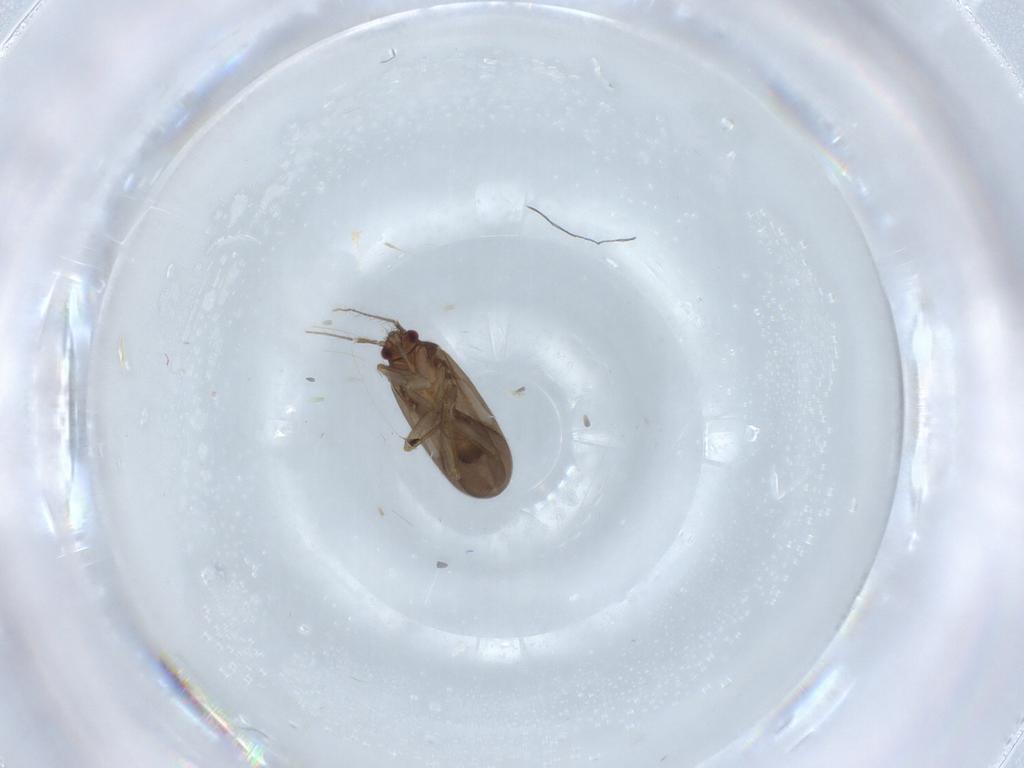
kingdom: Animalia
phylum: Arthropoda
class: Insecta
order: Hemiptera
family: Ceratocombidae
